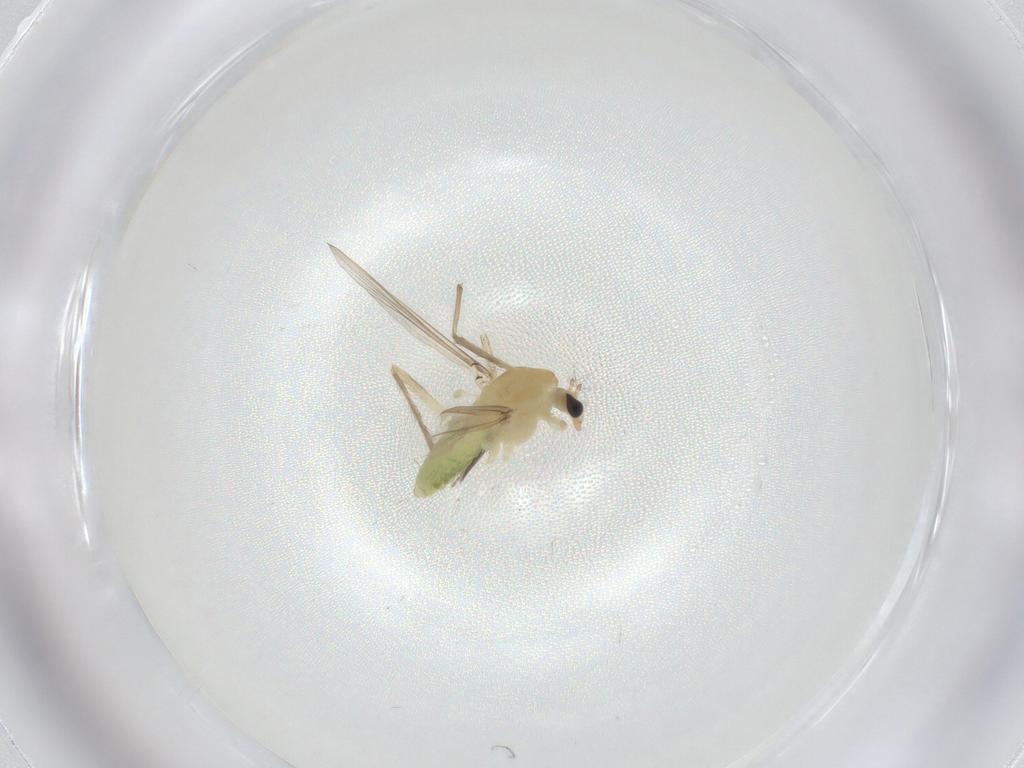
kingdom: Animalia
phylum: Arthropoda
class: Insecta
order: Diptera
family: Chironomidae
